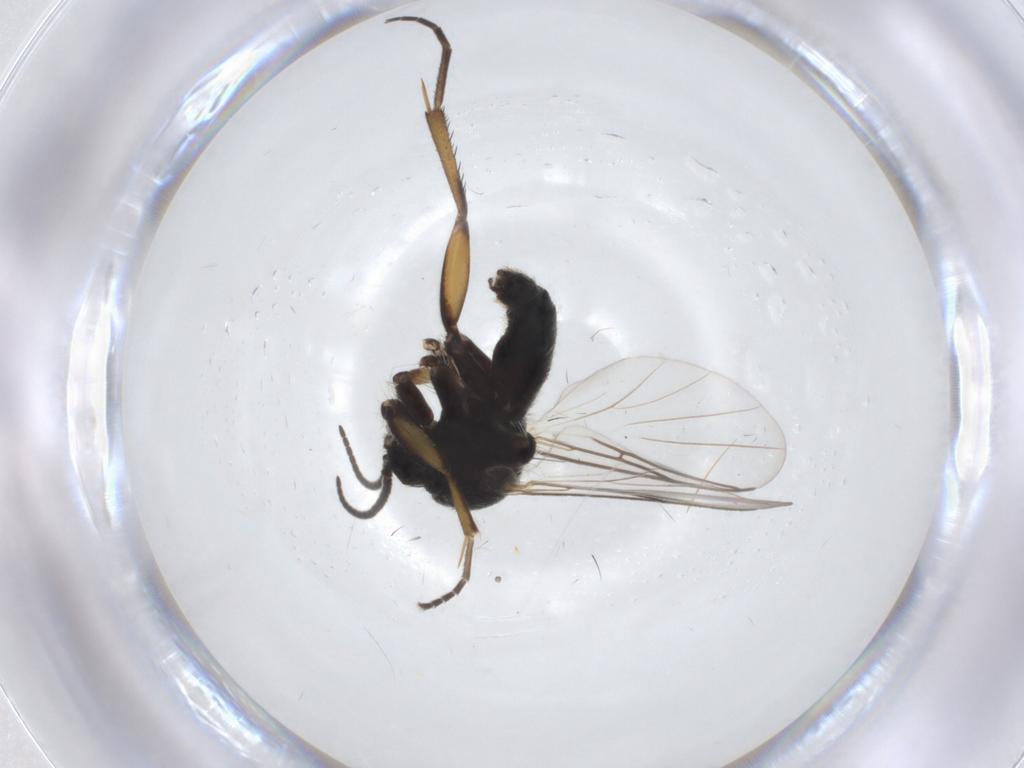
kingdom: Animalia
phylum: Arthropoda
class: Insecta
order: Diptera
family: Mycetophilidae
